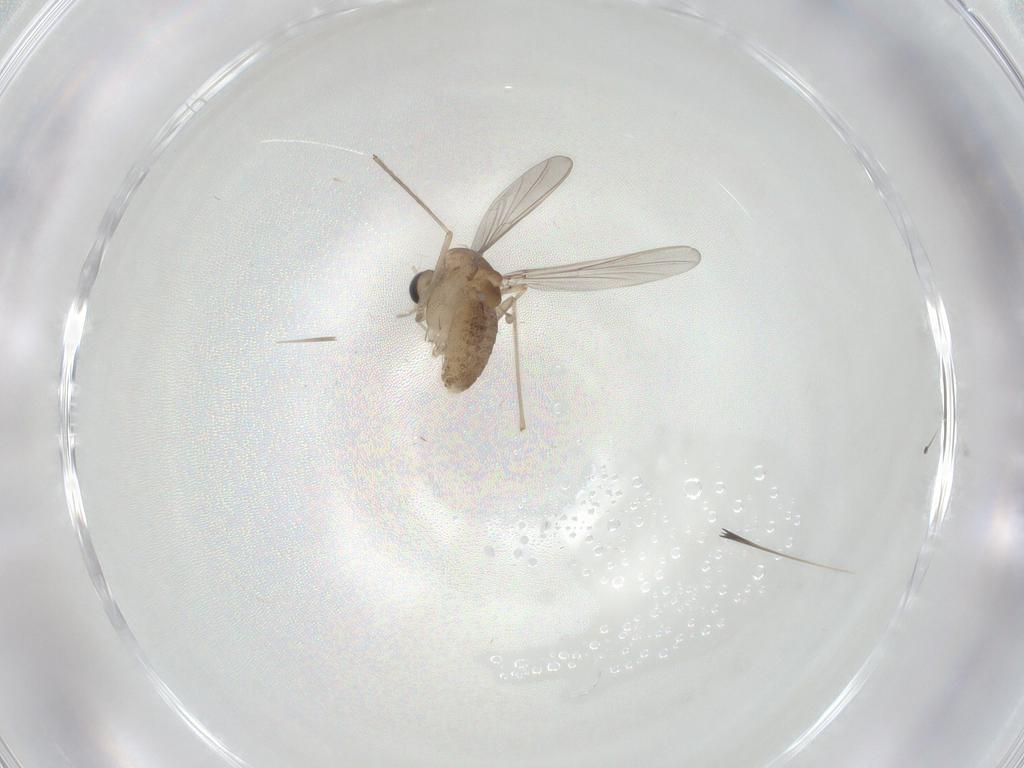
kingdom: Animalia
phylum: Arthropoda
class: Insecta
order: Diptera
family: Chironomidae
